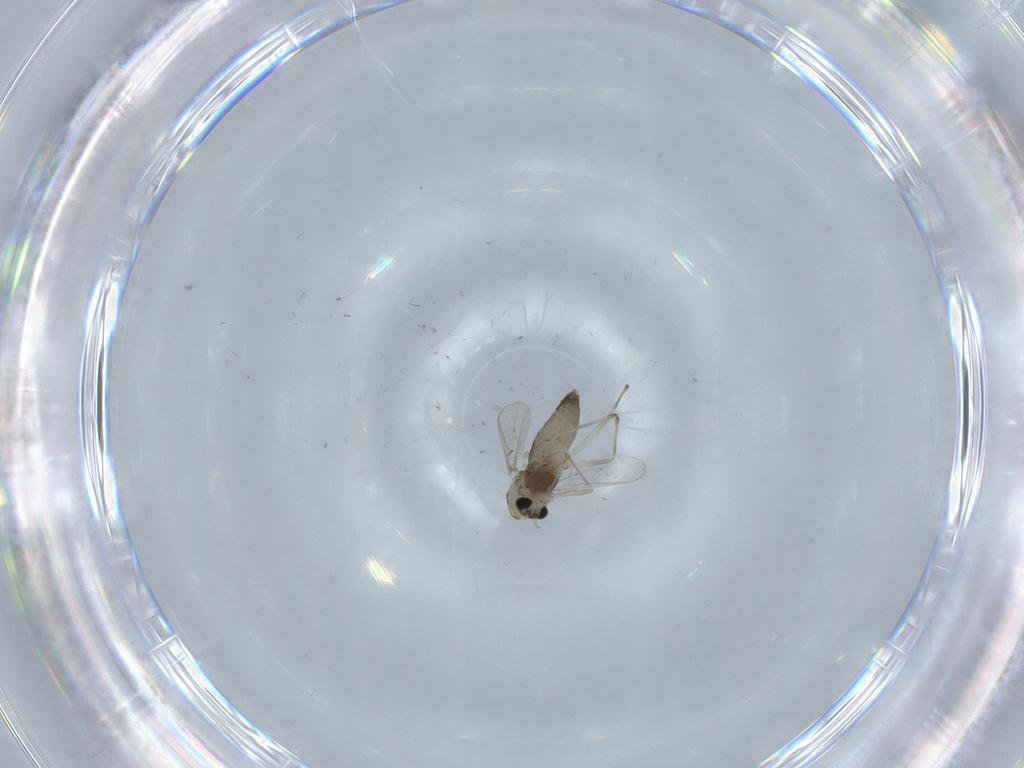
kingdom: Animalia
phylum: Arthropoda
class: Insecta
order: Diptera
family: Chironomidae
